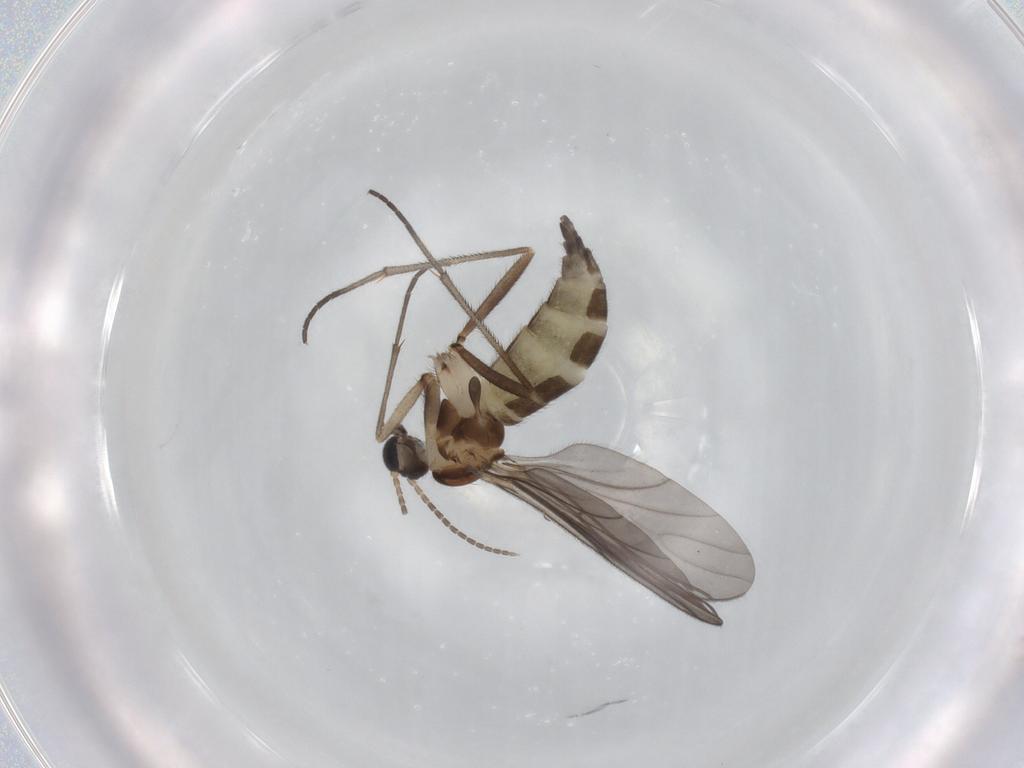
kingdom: Animalia
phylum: Arthropoda
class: Insecta
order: Diptera
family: Sciaridae
